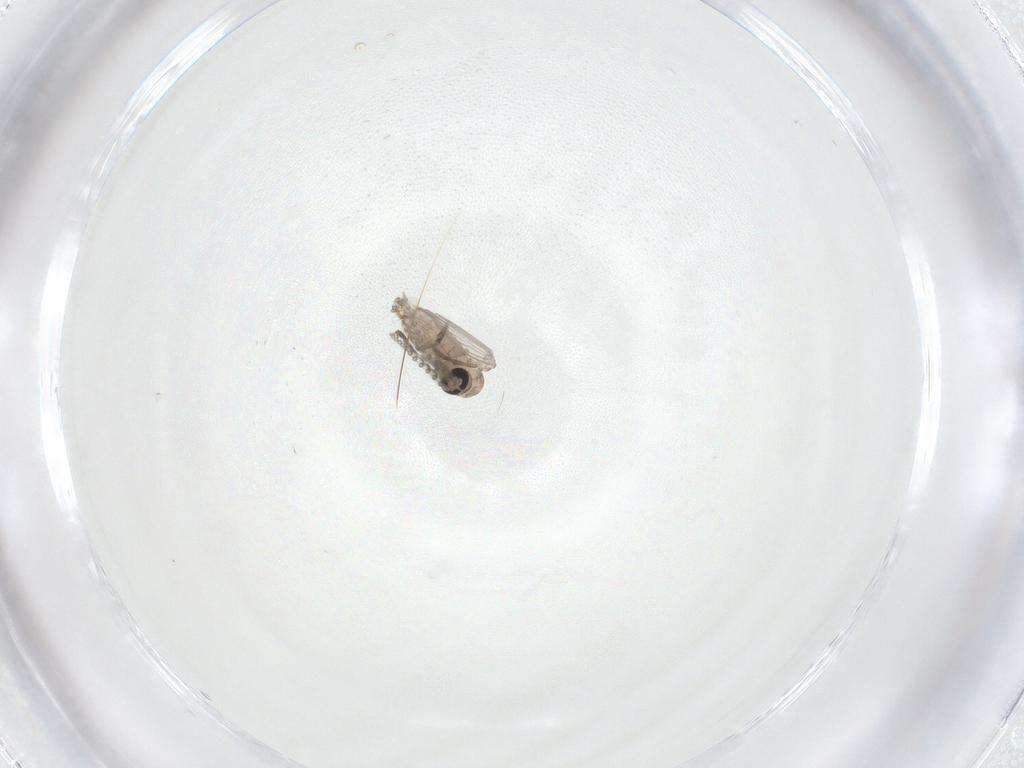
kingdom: Animalia
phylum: Arthropoda
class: Insecta
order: Diptera
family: Psychodidae
